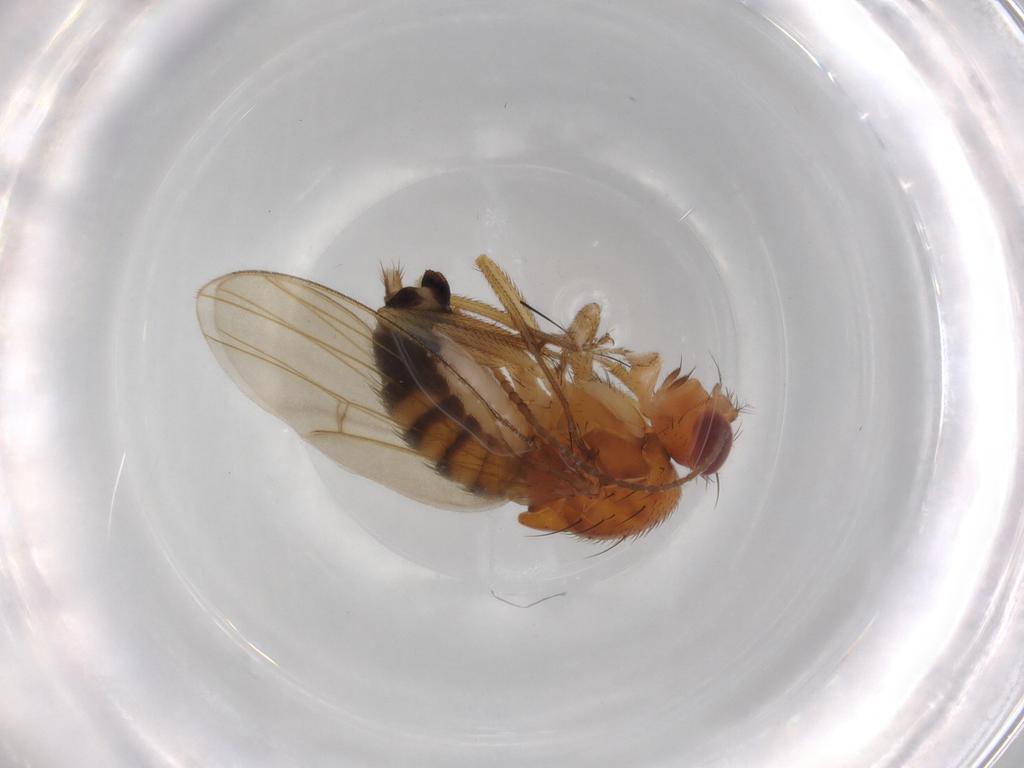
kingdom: Animalia
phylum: Arthropoda
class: Insecta
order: Diptera
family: Drosophilidae
